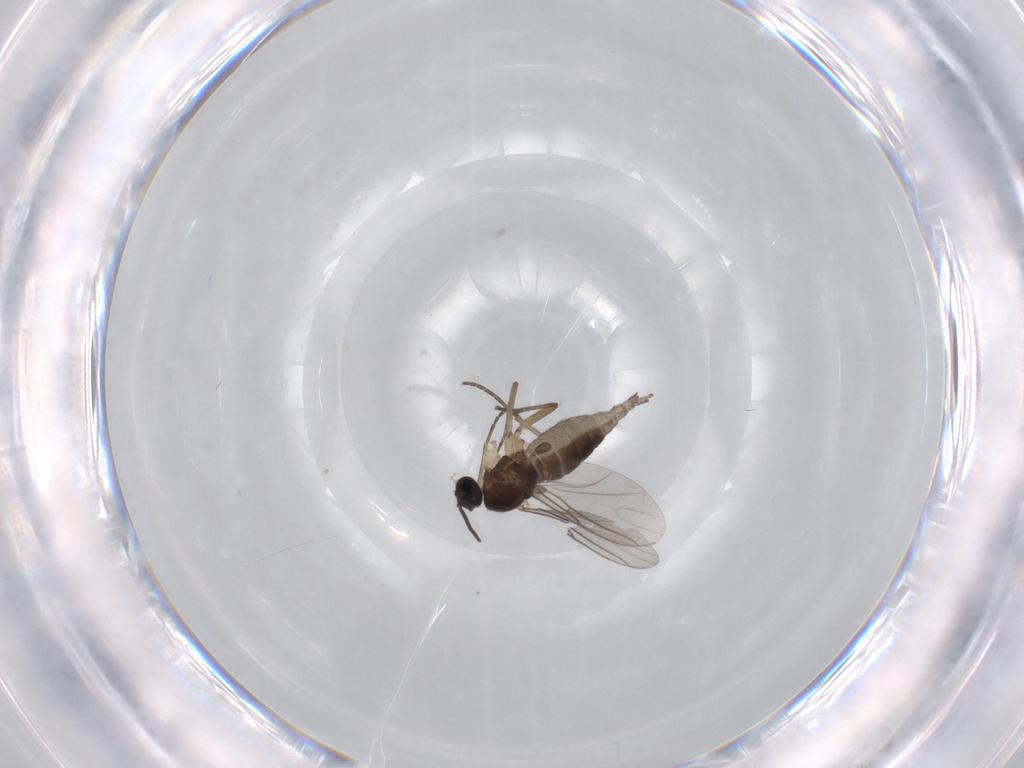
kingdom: Animalia
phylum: Arthropoda
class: Insecta
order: Diptera
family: Sciaridae
